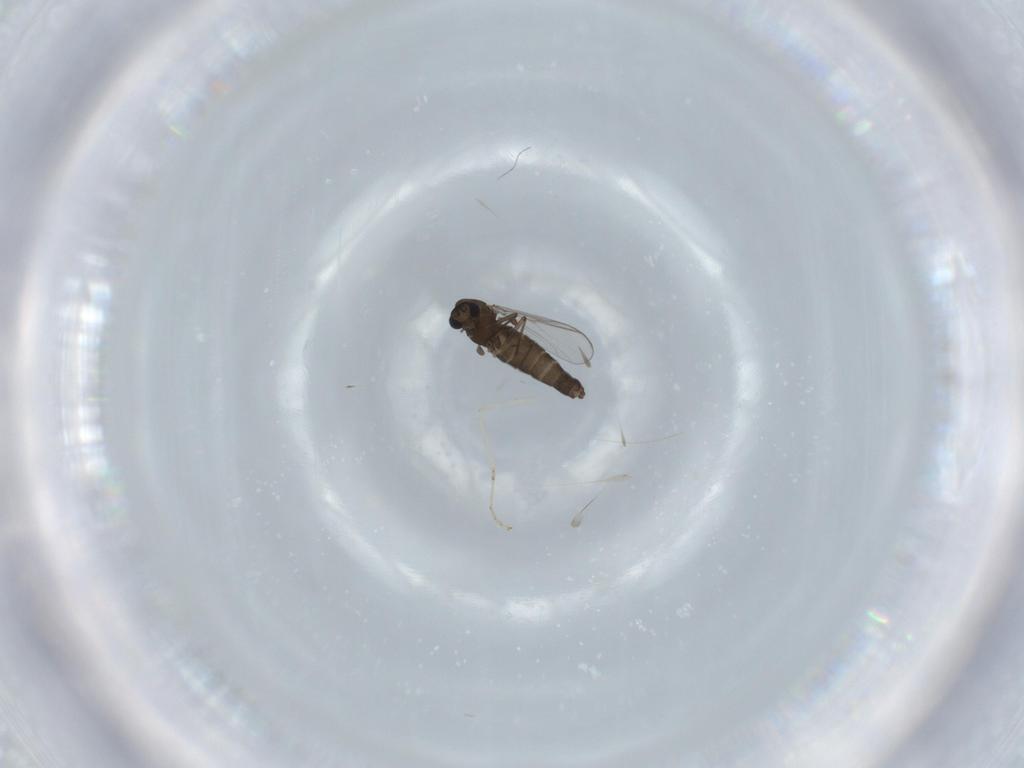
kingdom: Animalia
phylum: Arthropoda
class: Insecta
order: Diptera
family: Chironomidae
